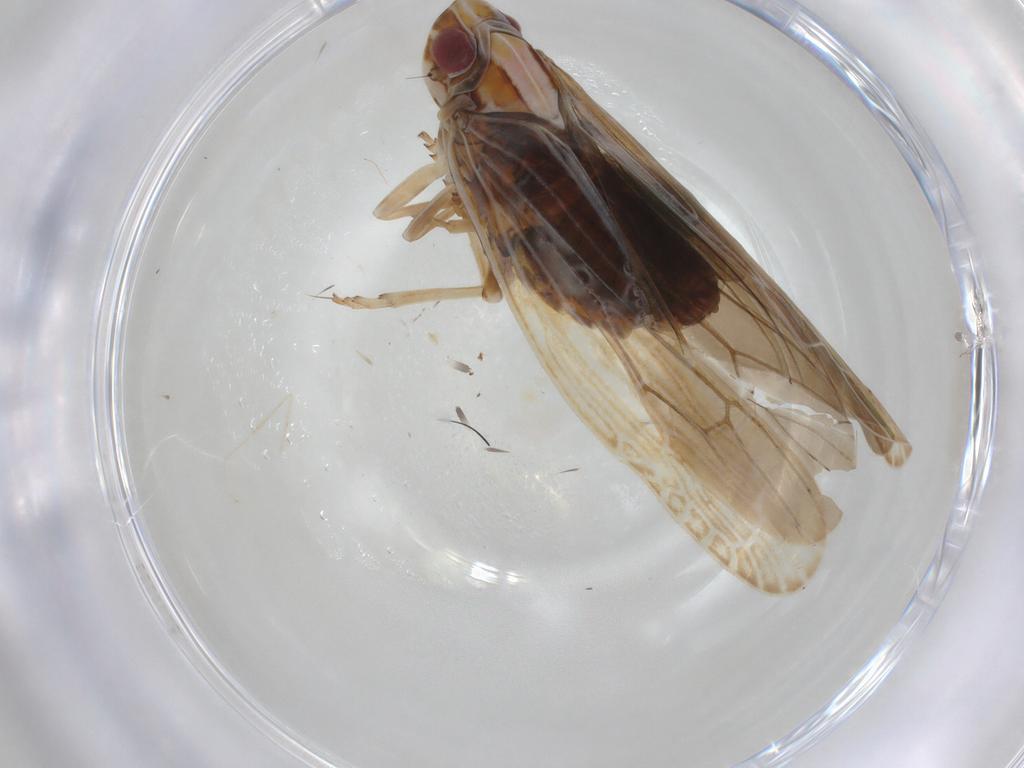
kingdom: Animalia
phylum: Arthropoda
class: Insecta
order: Hemiptera
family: Achilidae
